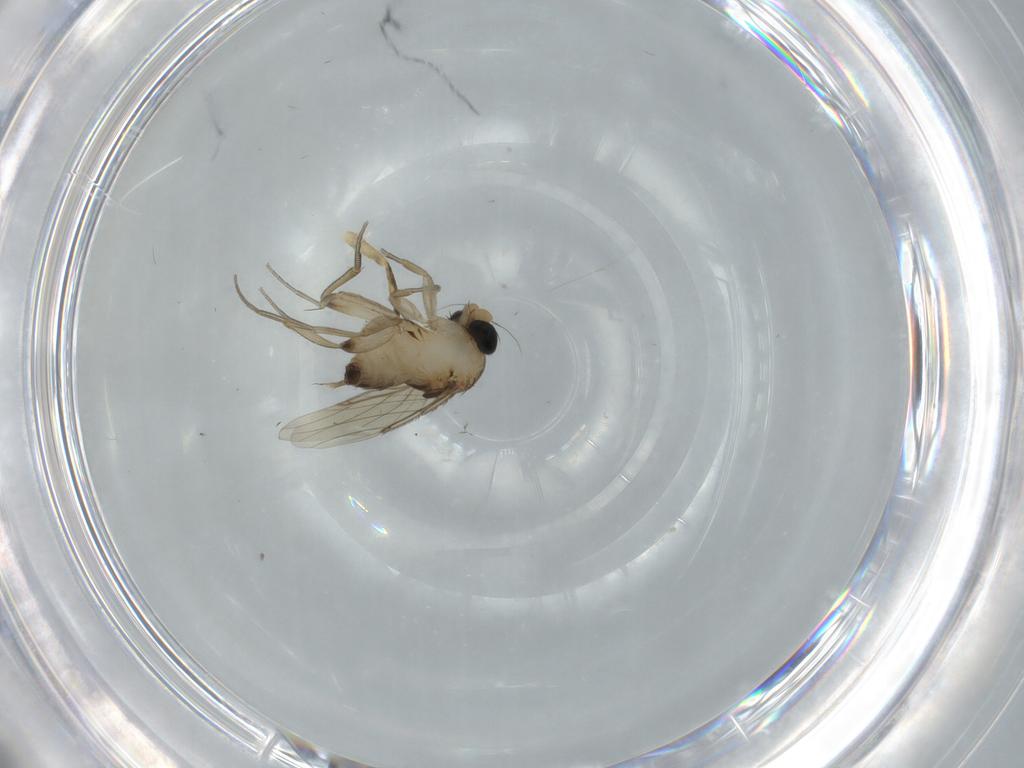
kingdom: Animalia
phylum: Arthropoda
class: Insecta
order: Diptera
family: Phoridae
